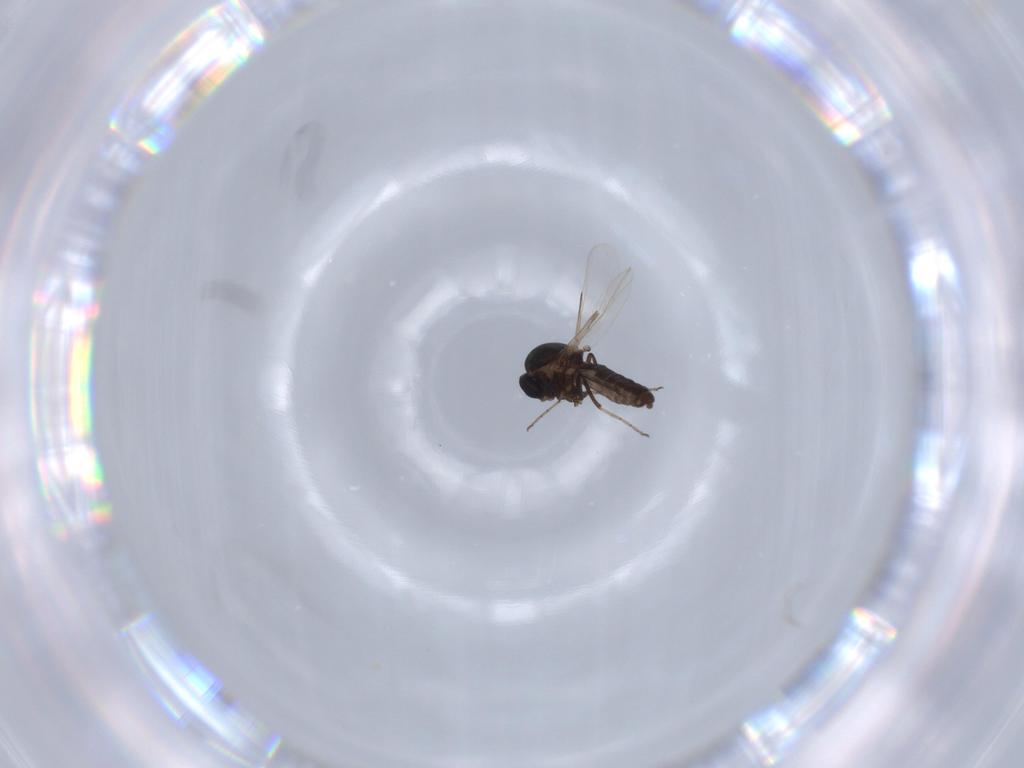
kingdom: Animalia
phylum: Arthropoda
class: Insecta
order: Diptera
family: Ceratopogonidae
